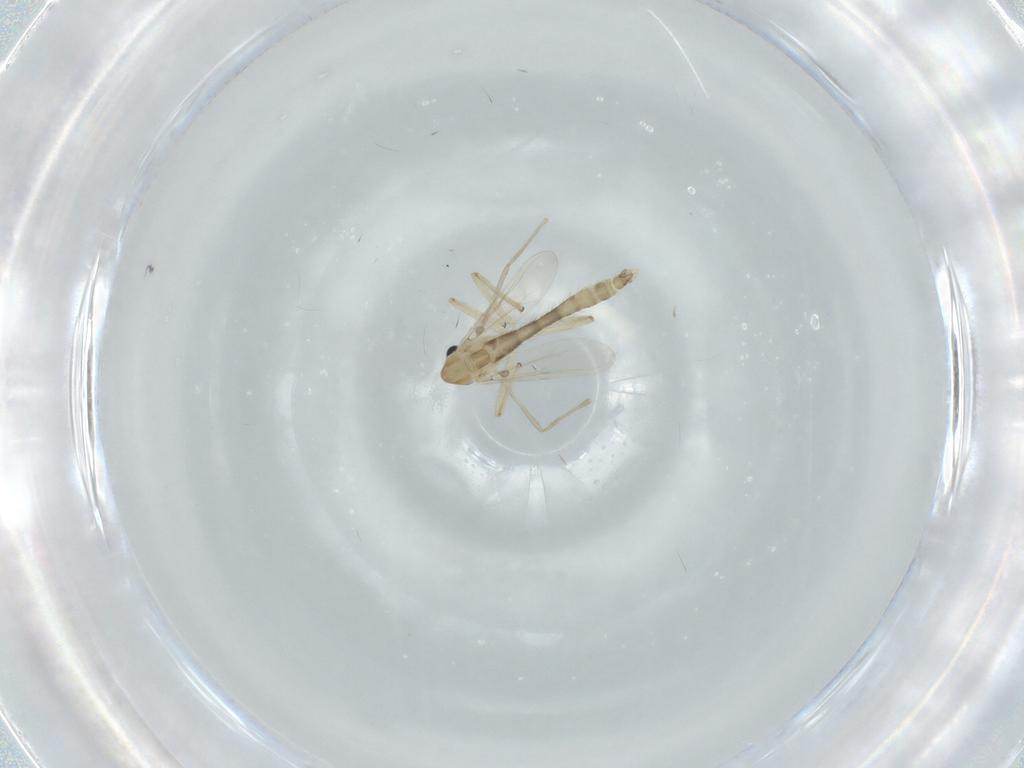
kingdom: Animalia
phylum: Arthropoda
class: Insecta
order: Diptera
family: Chironomidae
